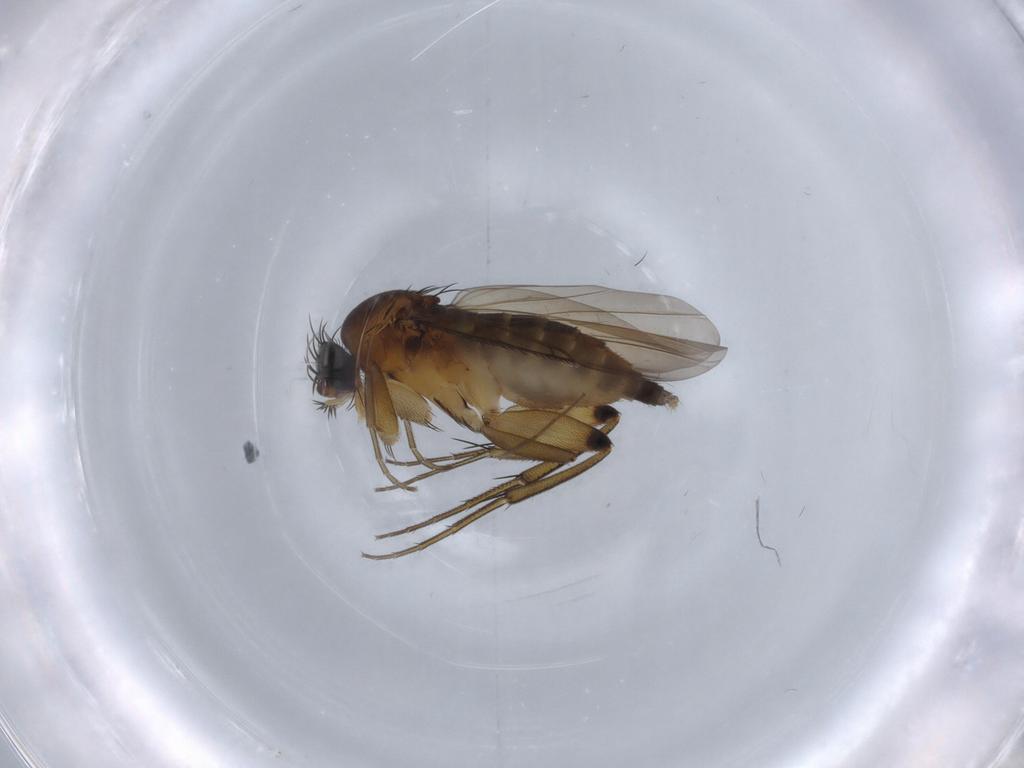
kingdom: Animalia
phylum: Arthropoda
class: Insecta
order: Diptera
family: Phoridae
